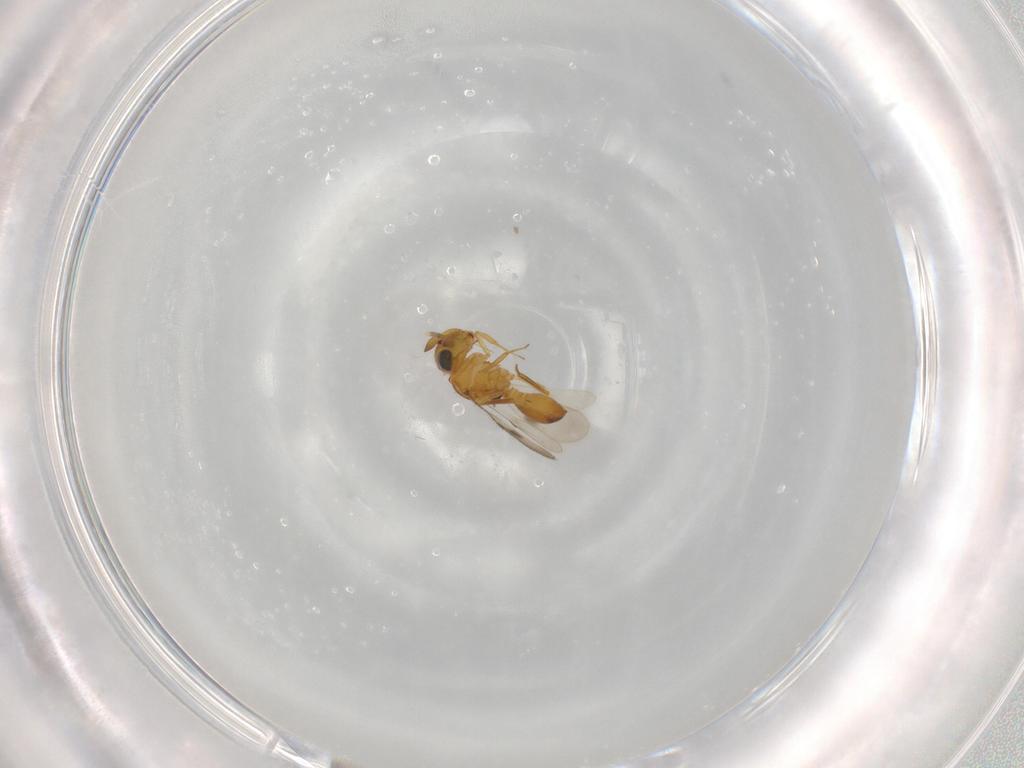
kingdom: Animalia
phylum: Arthropoda
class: Insecta
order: Hymenoptera
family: Scelionidae
